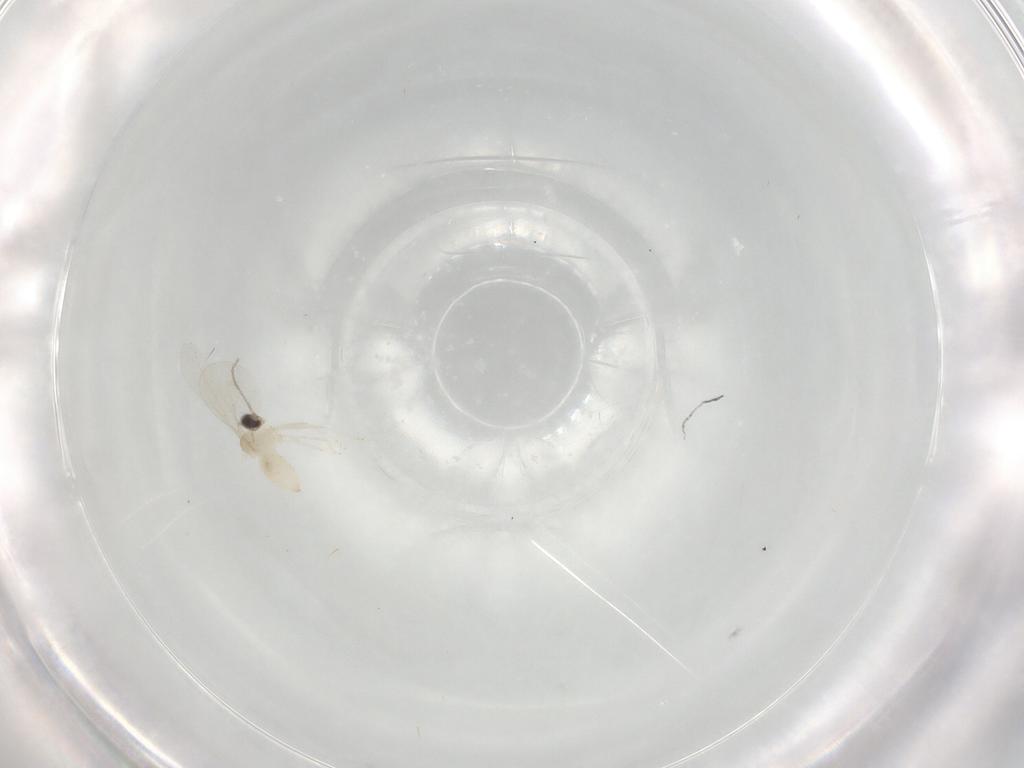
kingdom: Animalia
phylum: Arthropoda
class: Insecta
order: Diptera
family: Cecidomyiidae
